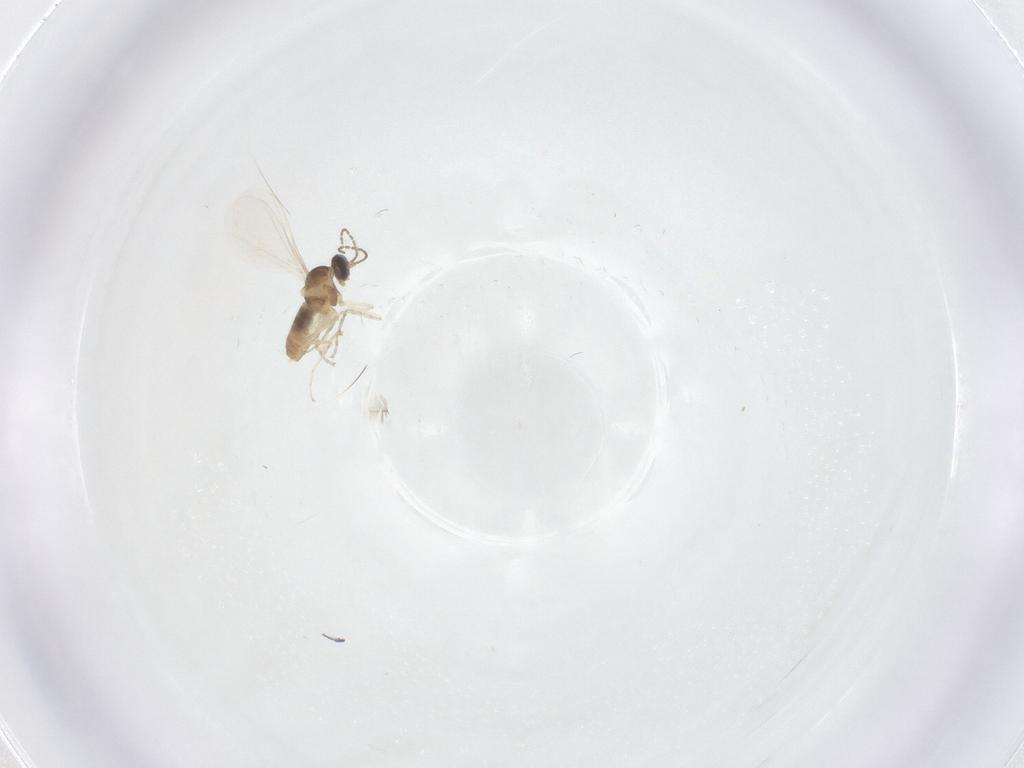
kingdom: Animalia
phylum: Arthropoda
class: Insecta
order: Diptera
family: Cecidomyiidae
